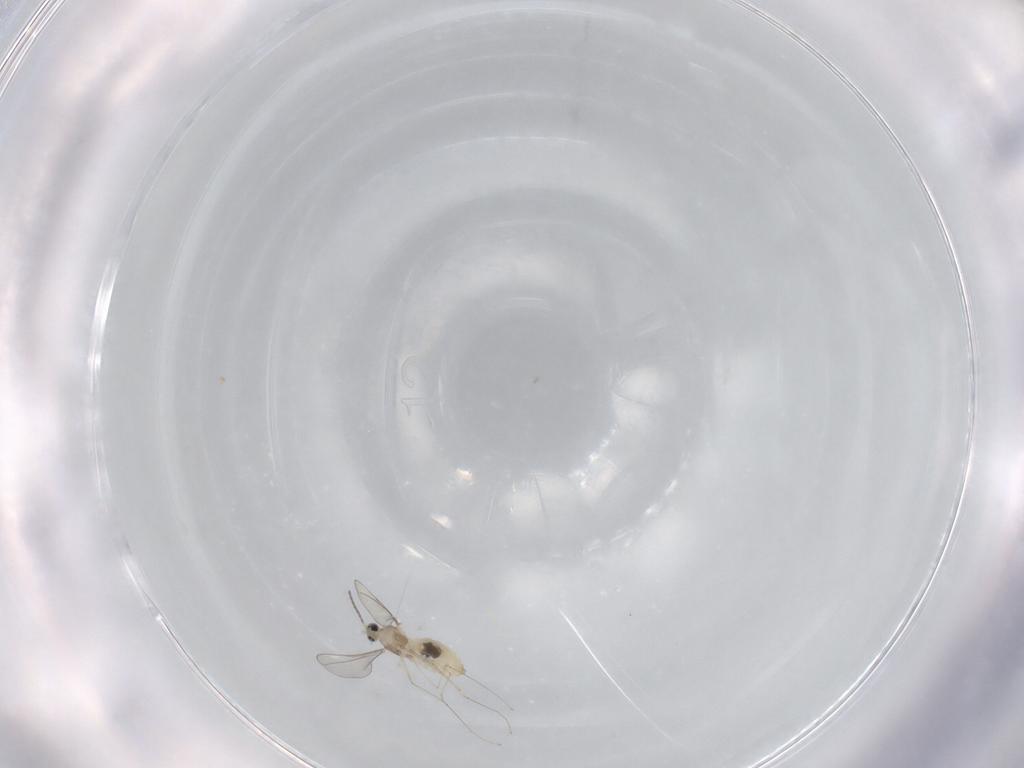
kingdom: Animalia
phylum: Arthropoda
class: Insecta
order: Diptera
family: Cecidomyiidae
